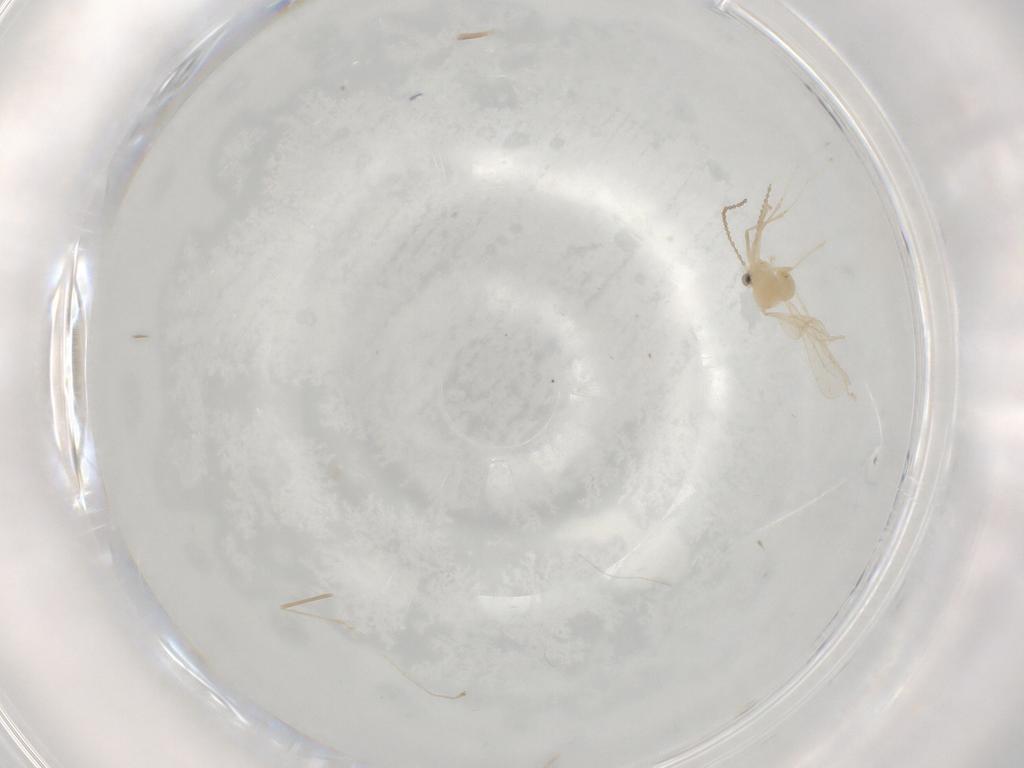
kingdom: Animalia
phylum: Arthropoda
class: Insecta
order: Diptera
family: Cecidomyiidae
